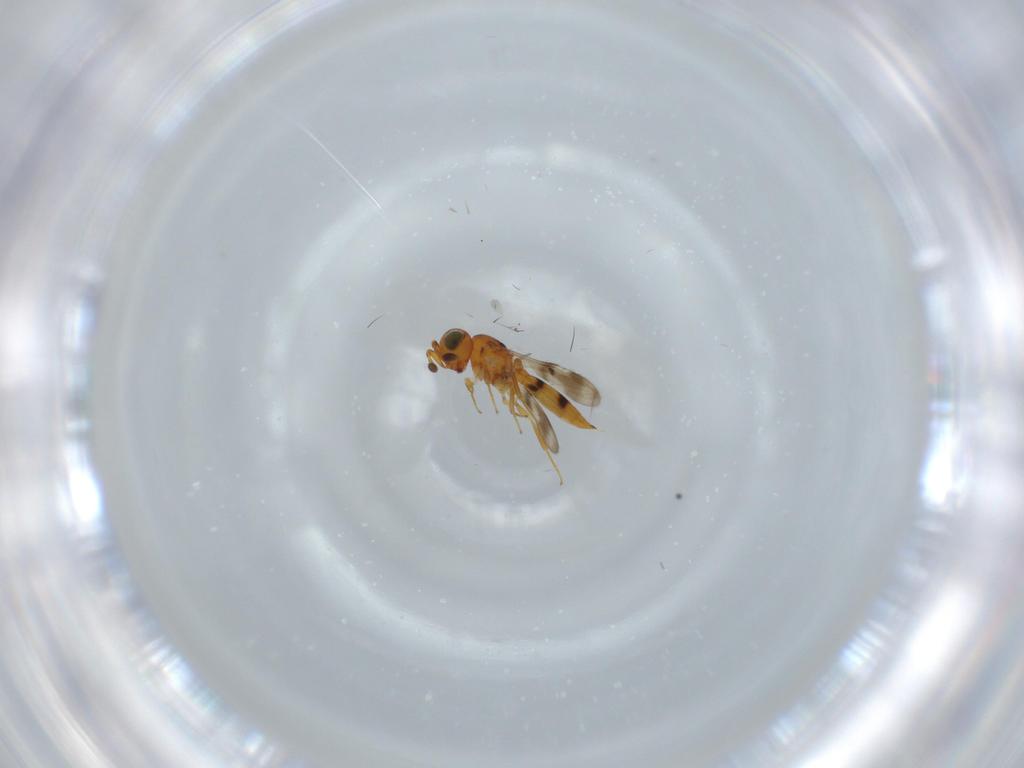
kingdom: Animalia
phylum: Arthropoda
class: Insecta
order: Hymenoptera
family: Scelionidae
